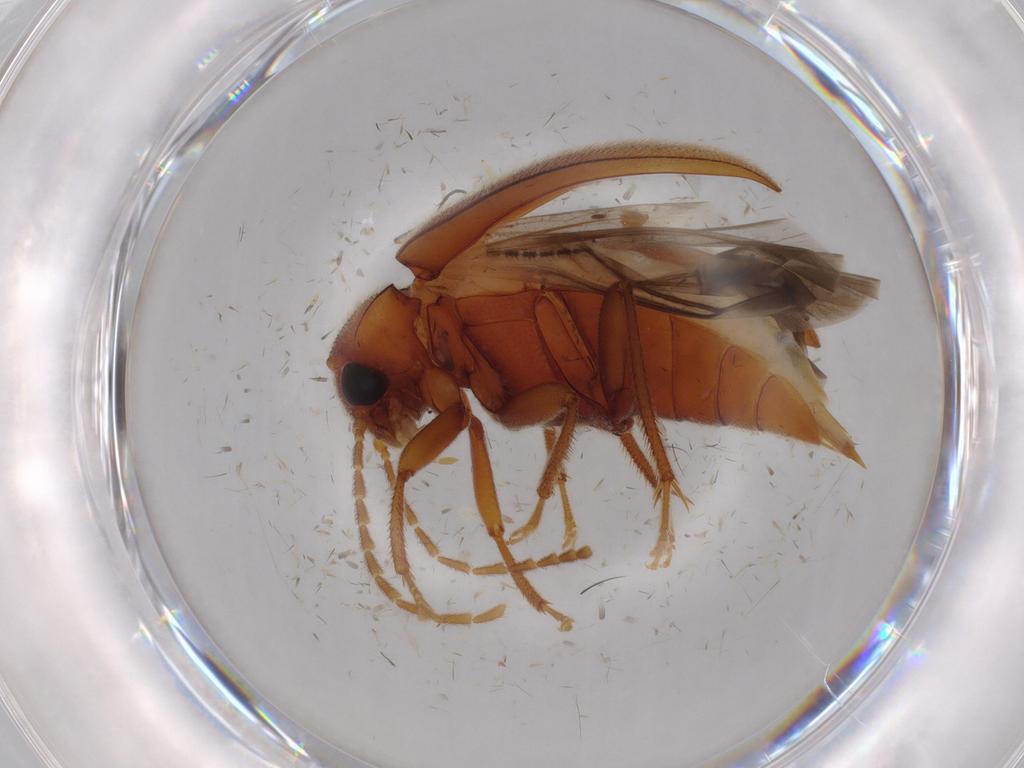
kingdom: Animalia
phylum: Arthropoda
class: Insecta
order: Coleoptera
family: Ptilodactylidae
